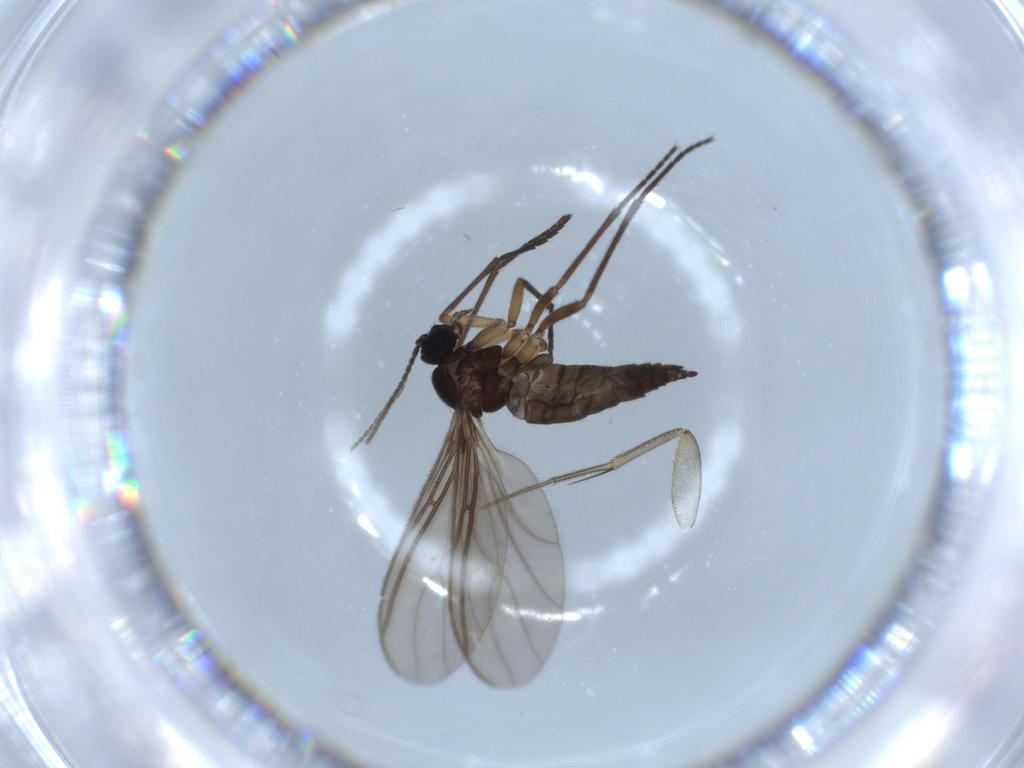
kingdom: Animalia
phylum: Arthropoda
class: Insecta
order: Diptera
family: Sciaridae
